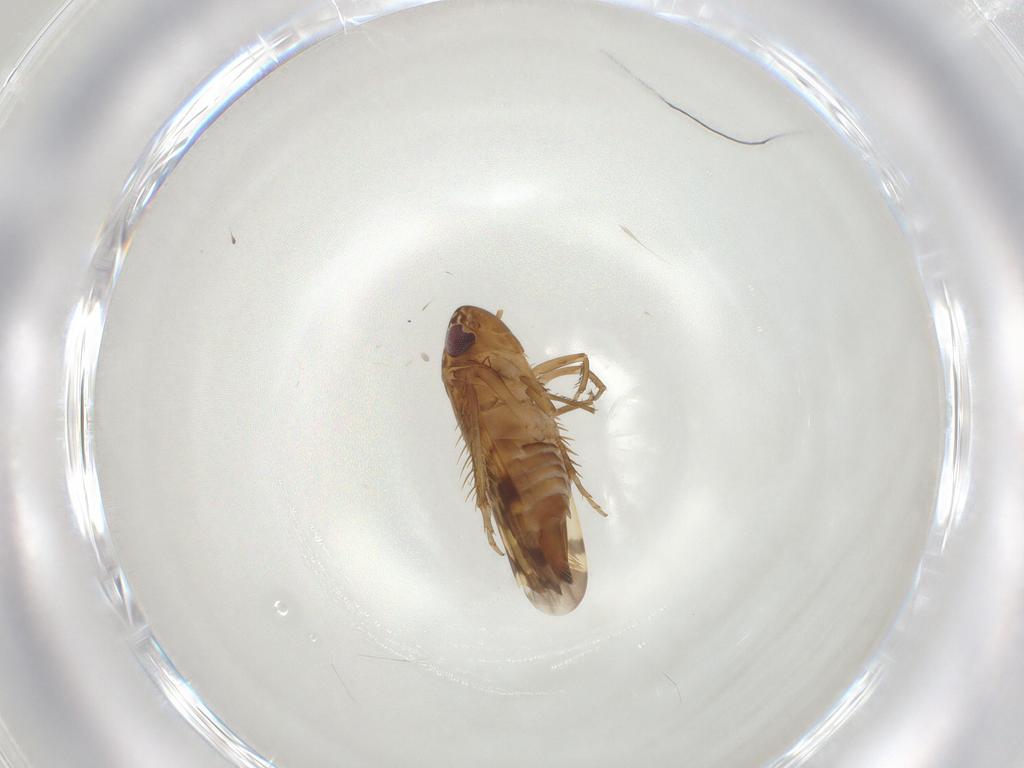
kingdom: Animalia
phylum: Arthropoda
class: Insecta
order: Hemiptera
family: Cicadellidae
